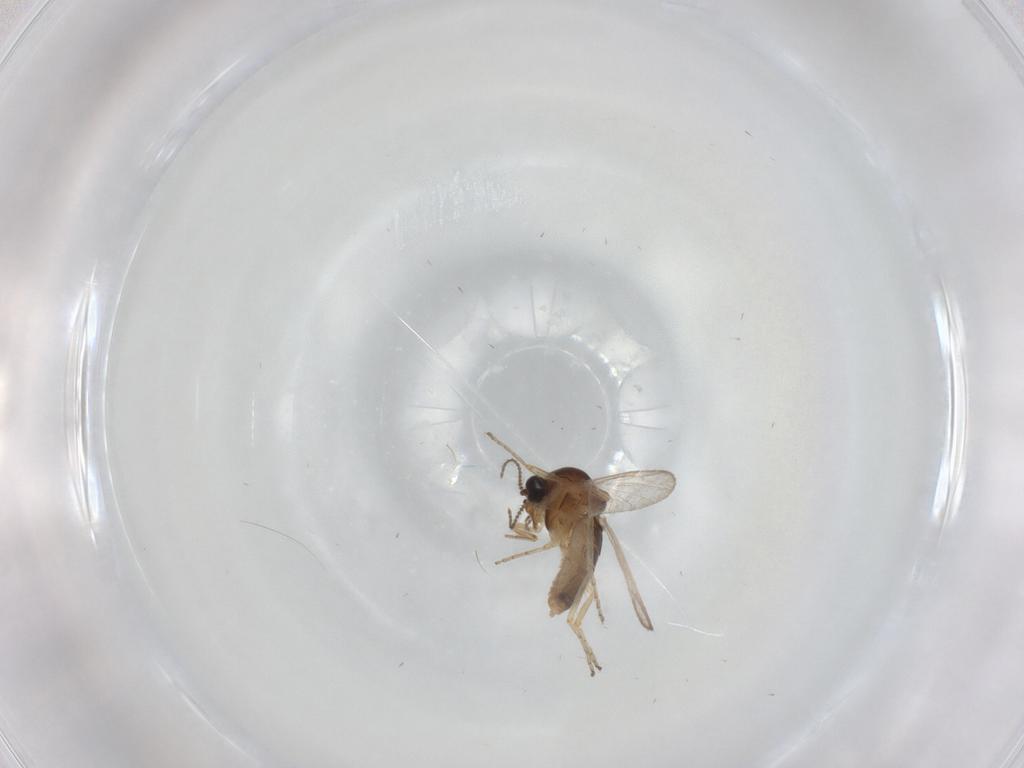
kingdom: Animalia
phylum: Arthropoda
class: Insecta
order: Diptera
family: Ceratopogonidae
